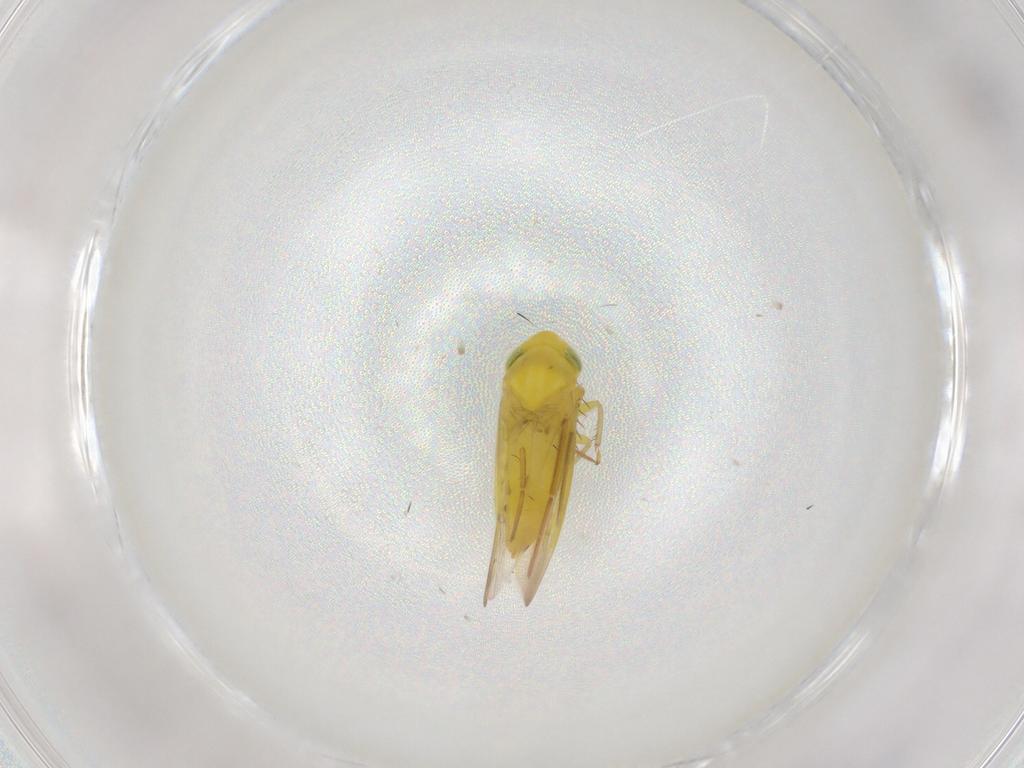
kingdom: Animalia
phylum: Arthropoda
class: Insecta
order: Hemiptera
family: Cicadellidae
